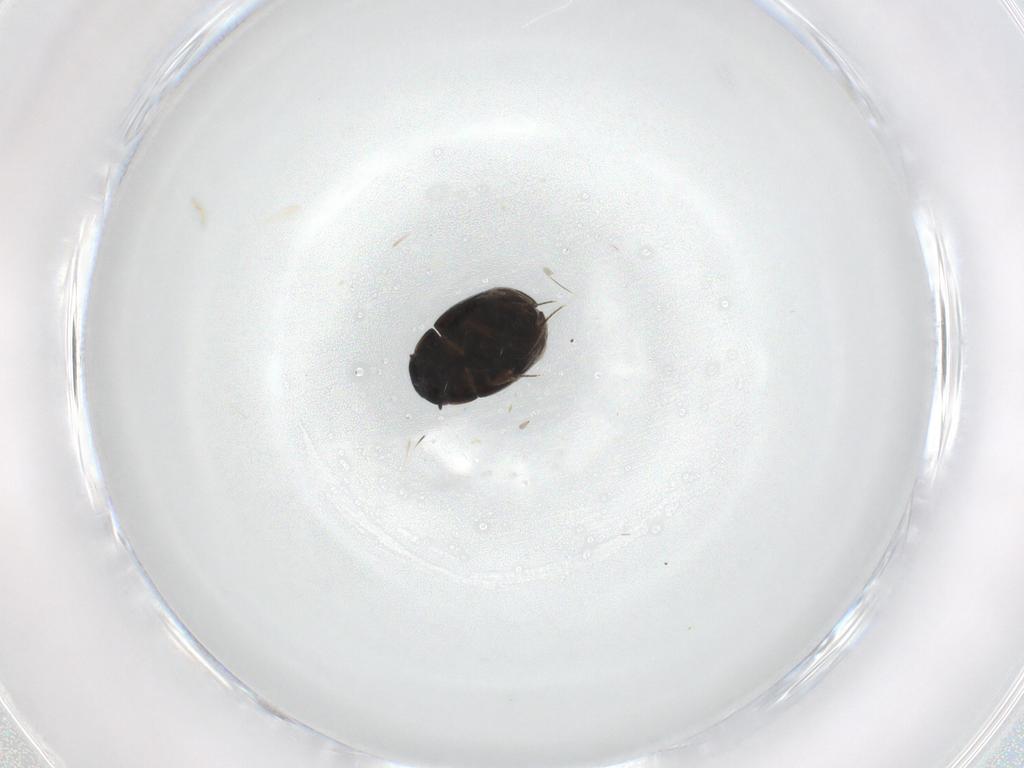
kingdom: Animalia
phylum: Arthropoda
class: Insecta
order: Coleoptera
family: Hydrophilidae
